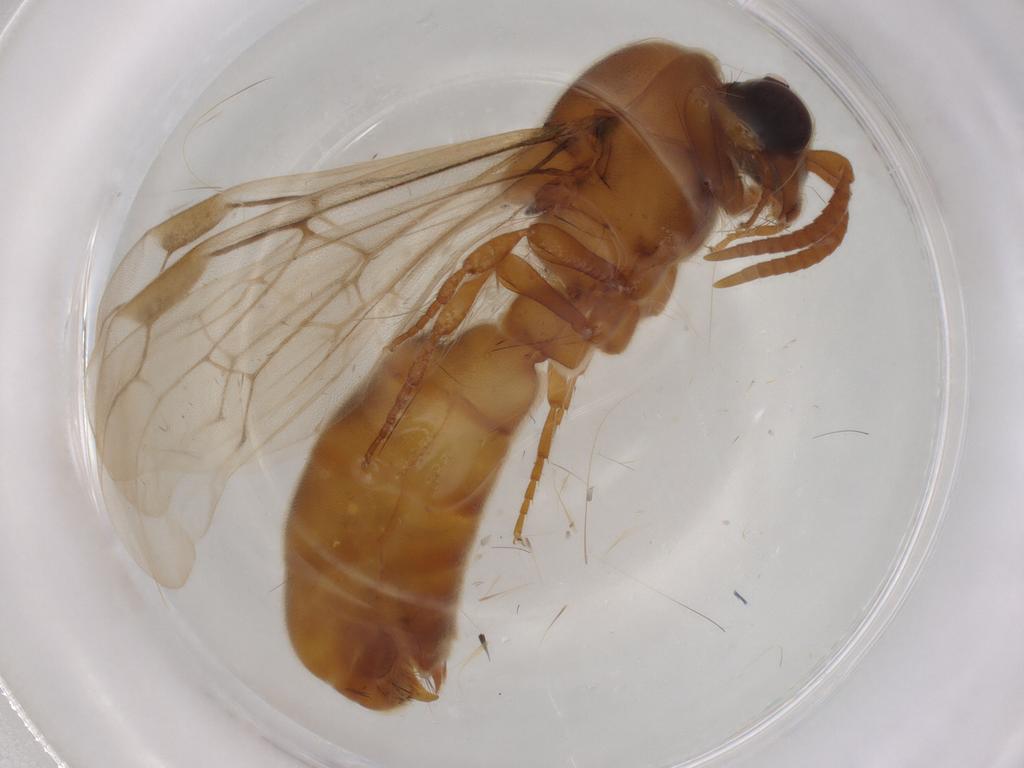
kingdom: Animalia
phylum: Arthropoda
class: Insecta
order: Hymenoptera
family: Formicidae
